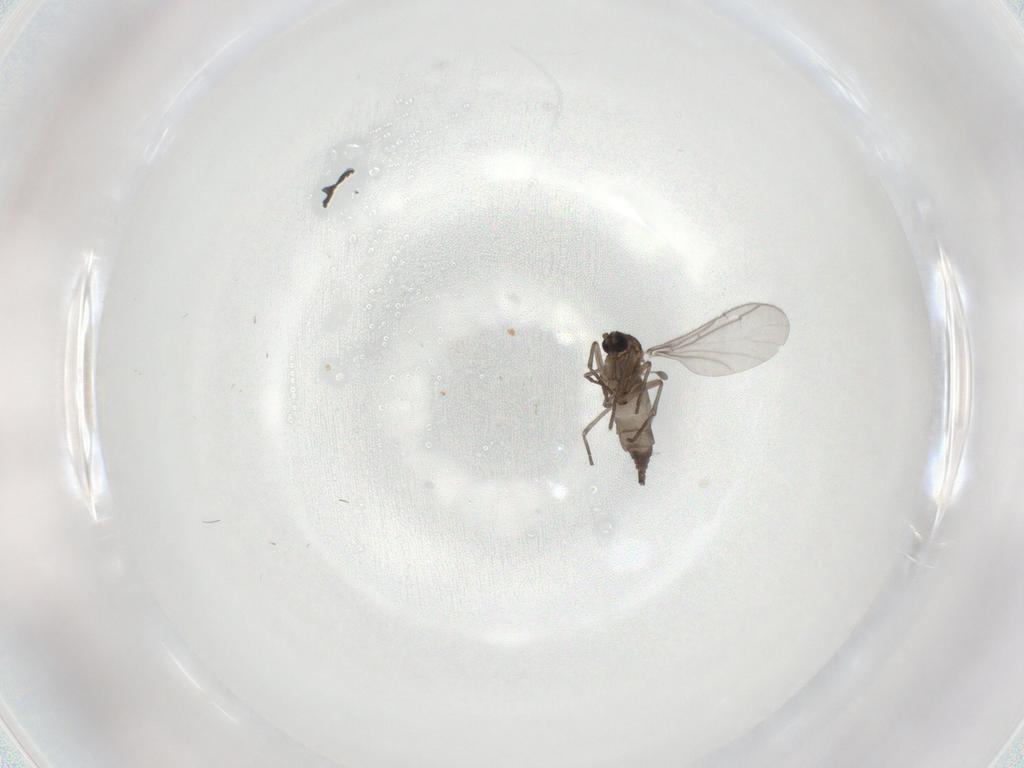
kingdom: Animalia
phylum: Arthropoda
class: Insecta
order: Diptera
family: Sciaridae
